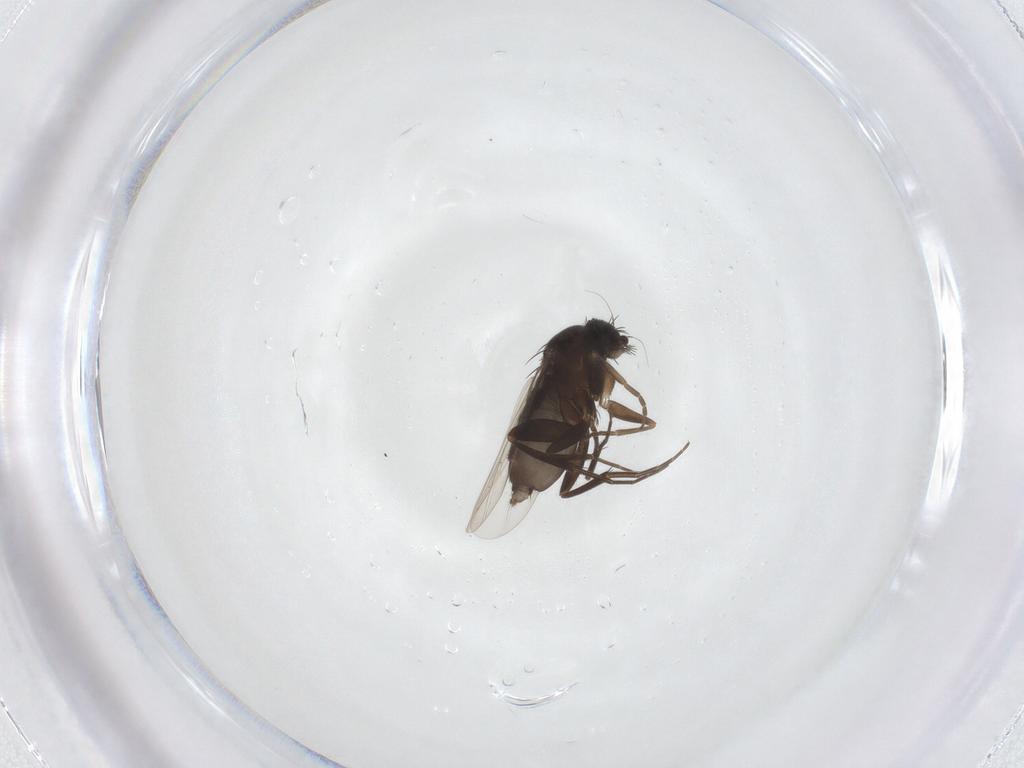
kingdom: Animalia
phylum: Arthropoda
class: Insecta
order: Diptera
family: Phoridae
